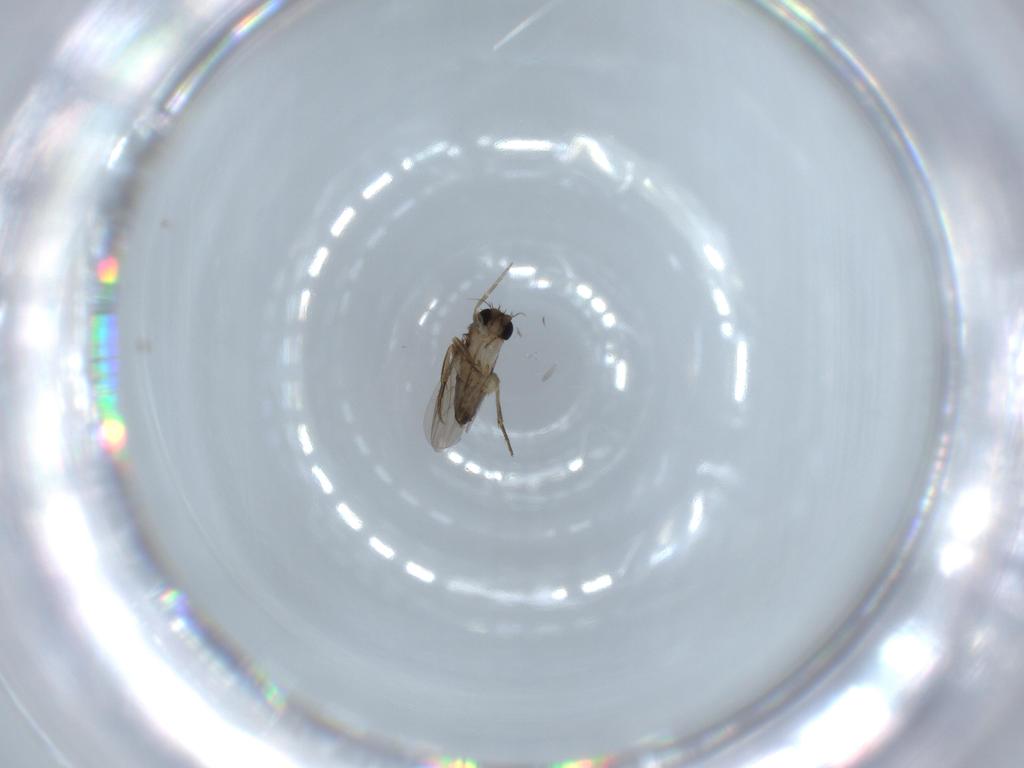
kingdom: Animalia
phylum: Arthropoda
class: Insecta
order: Diptera
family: Phoridae
